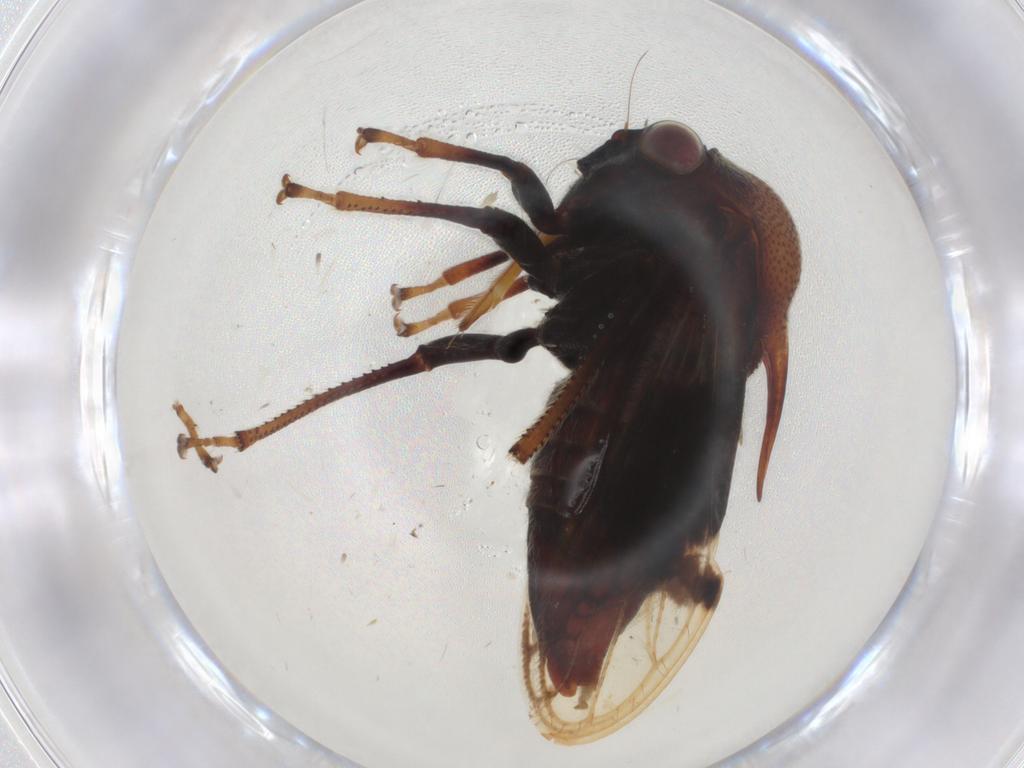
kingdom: Animalia
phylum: Arthropoda
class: Insecta
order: Hemiptera
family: Membracidae
